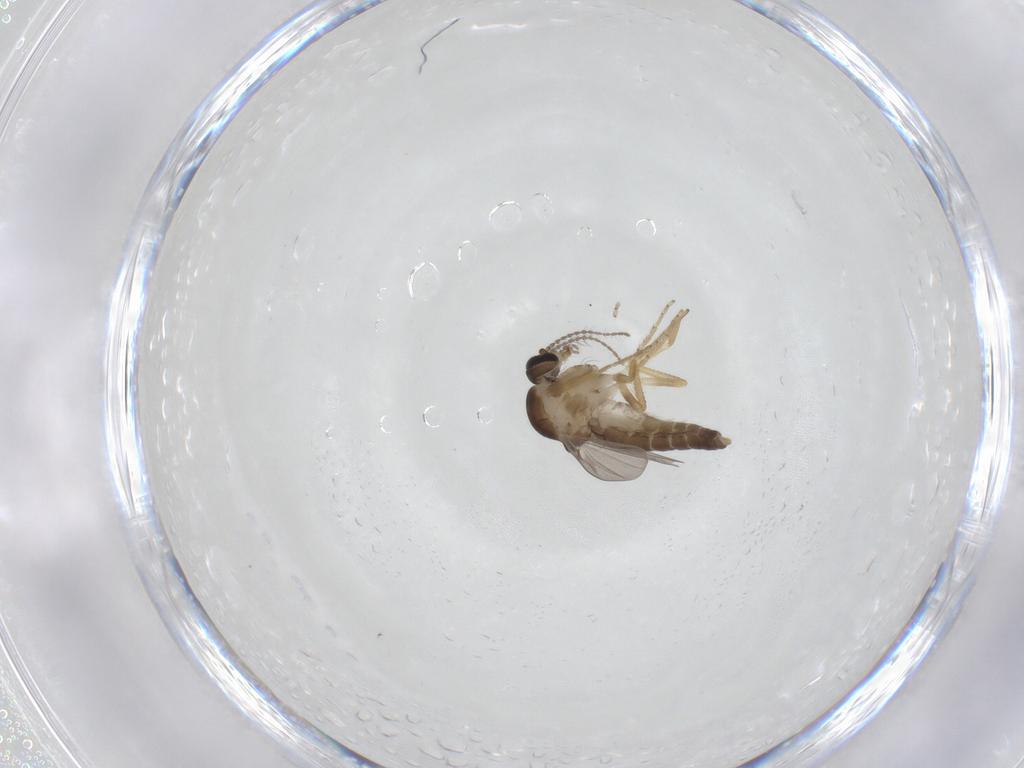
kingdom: Animalia
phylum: Arthropoda
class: Insecta
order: Diptera
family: Ceratopogonidae
